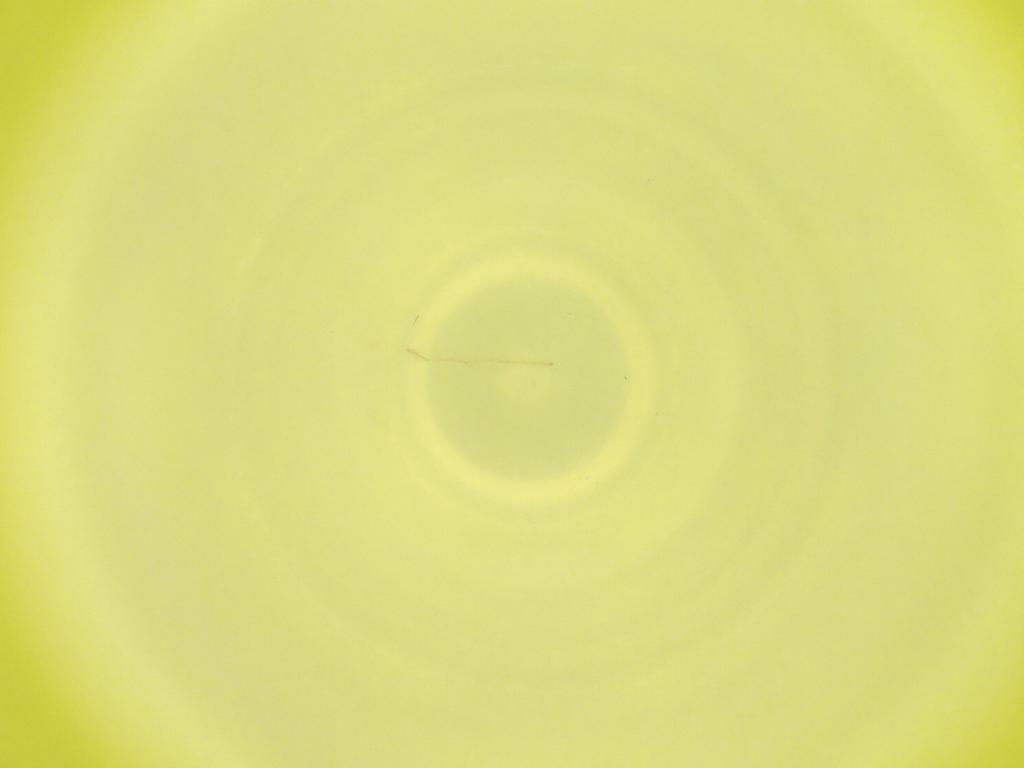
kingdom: Animalia
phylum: Arthropoda
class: Insecta
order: Diptera
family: Cecidomyiidae
